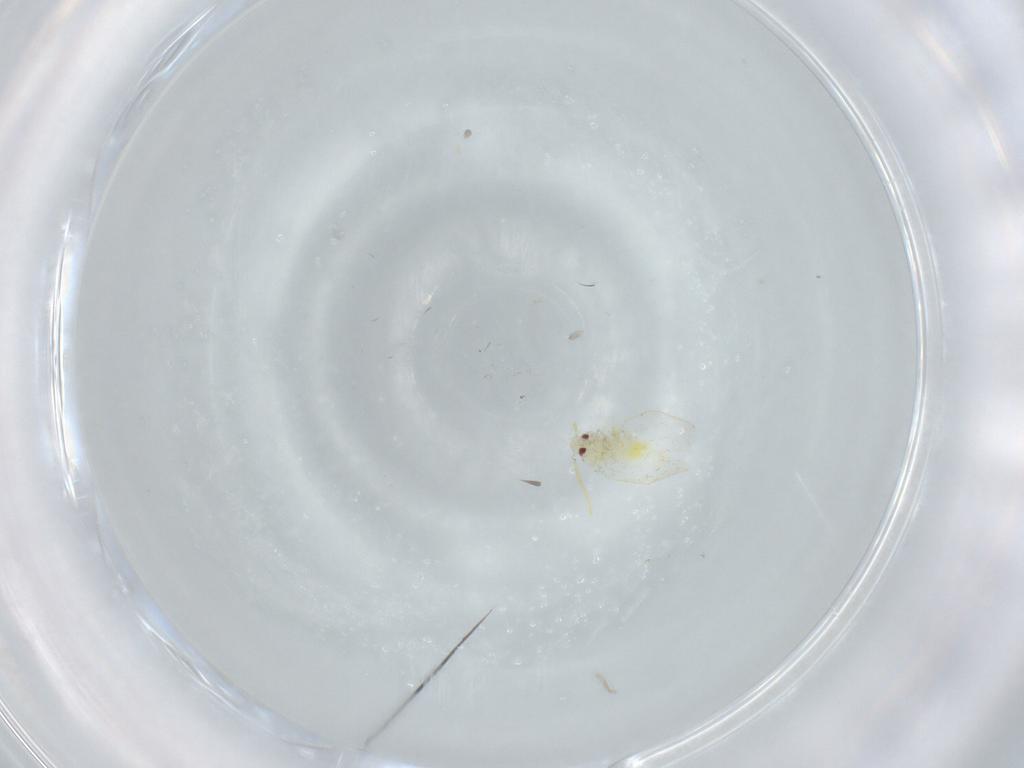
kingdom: Animalia
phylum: Arthropoda
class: Insecta
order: Hemiptera
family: Aleyrodidae
